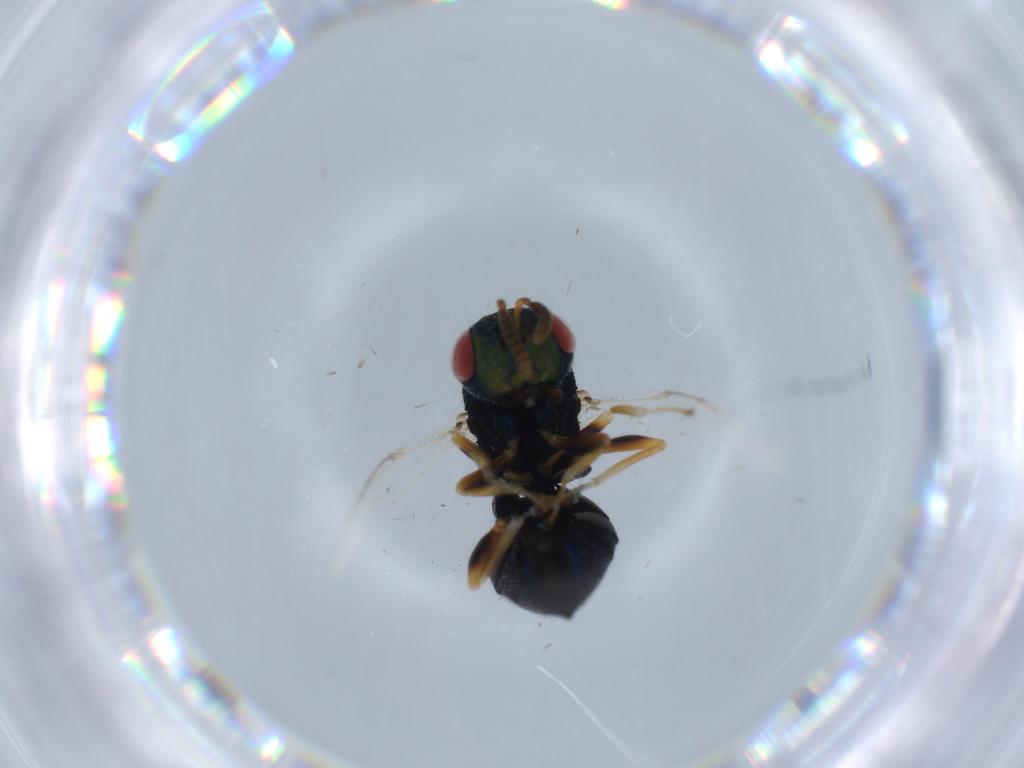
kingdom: Animalia
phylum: Arthropoda
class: Insecta
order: Hymenoptera
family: Pteromalidae
